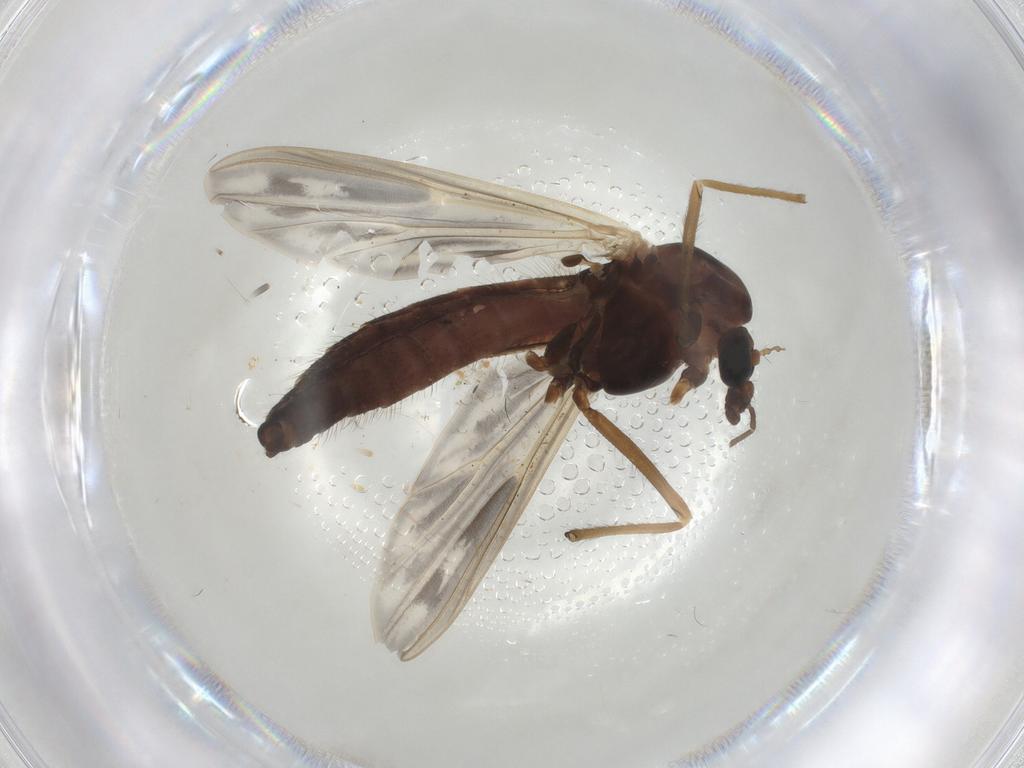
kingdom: Animalia
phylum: Arthropoda
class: Insecta
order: Diptera
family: Chironomidae
